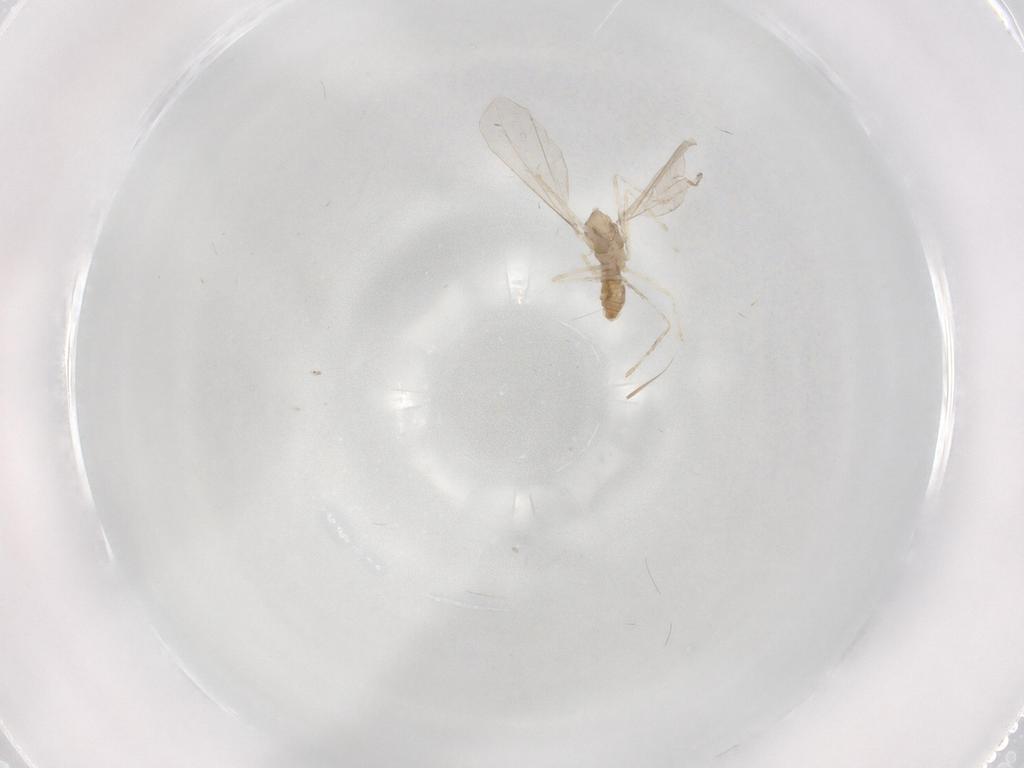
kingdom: Animalia
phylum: Arthropoda
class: Insecta
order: Diptera
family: Cecidomyiidae
